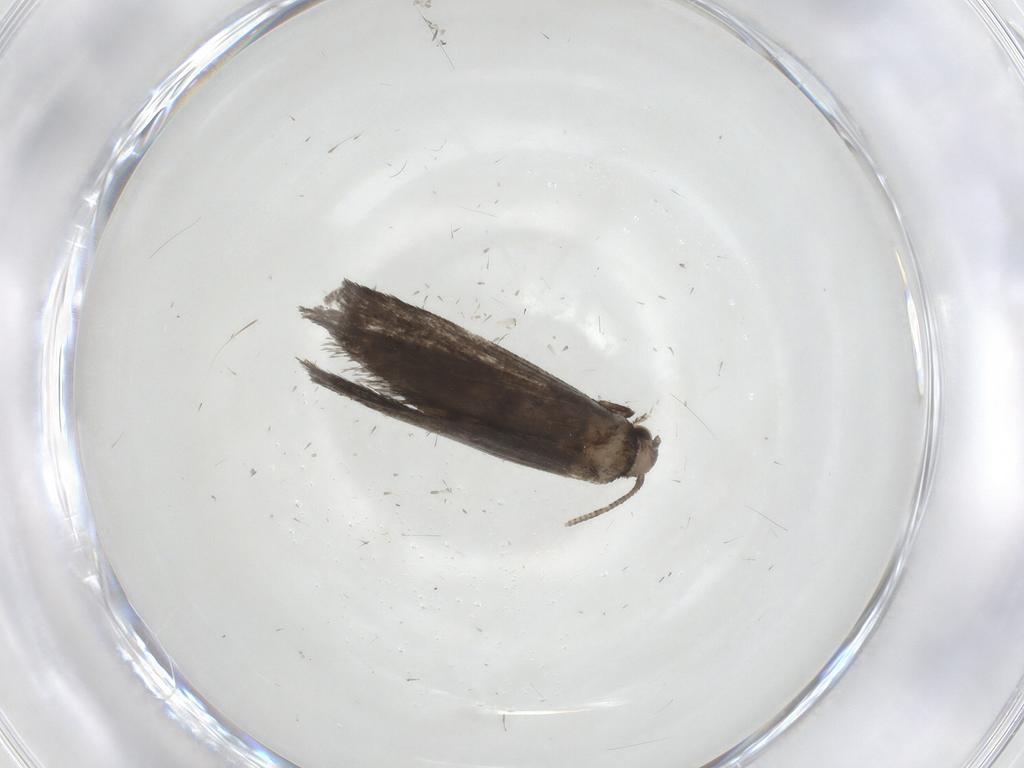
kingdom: Animalia
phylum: Arthropoda
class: Insecta
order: Lepidoptera
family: Nymphalidae
